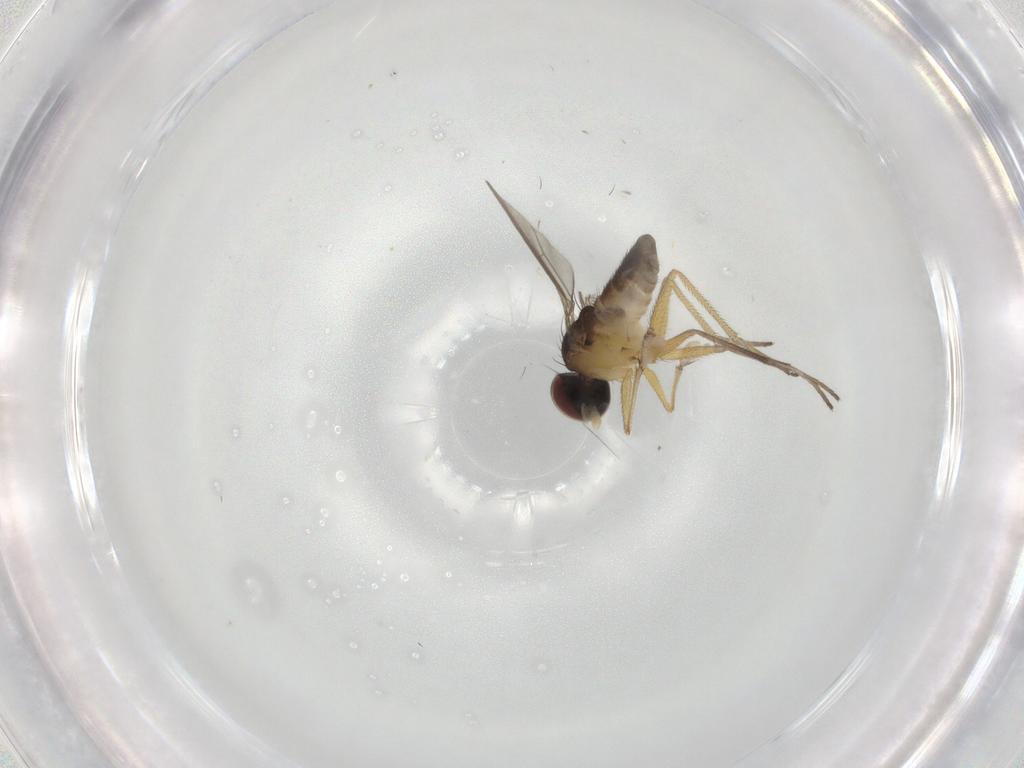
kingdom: Animalia
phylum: Arthropoda
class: Insecta
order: Diptera
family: Dolichopodidae
